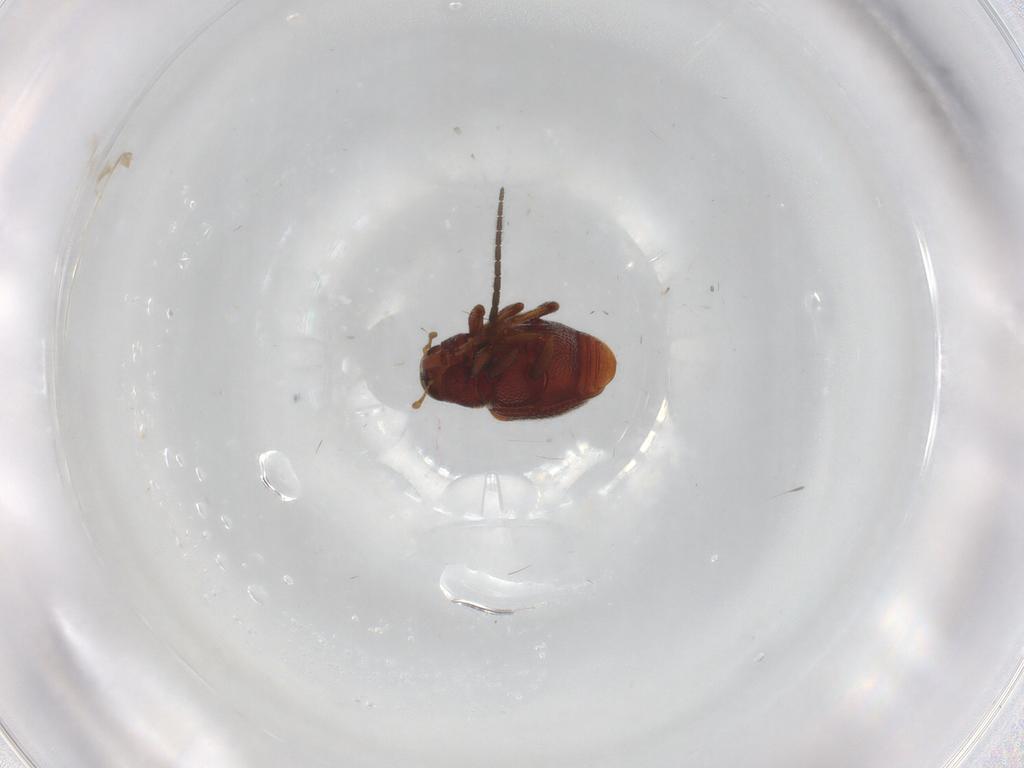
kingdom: Animalia
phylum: Arthropoda
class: Insecta
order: Coleoptera
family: Curculionidae
